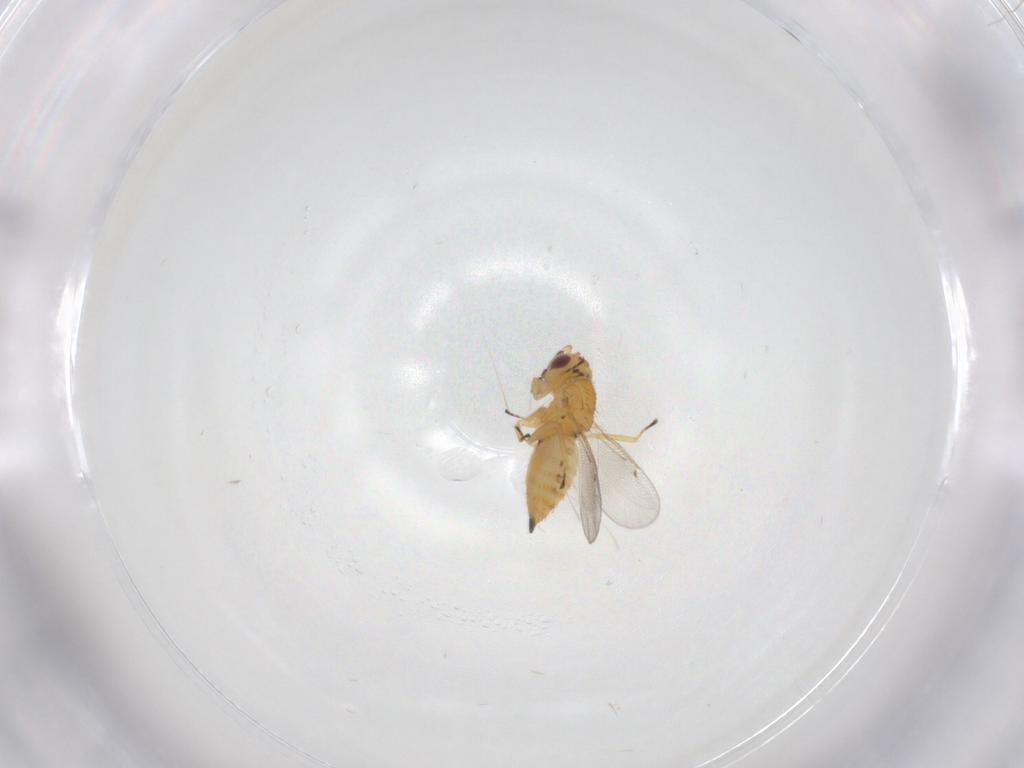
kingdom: Animalia
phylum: Arthropoda
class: Insecta
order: Hymenoptera
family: Eulophidae
